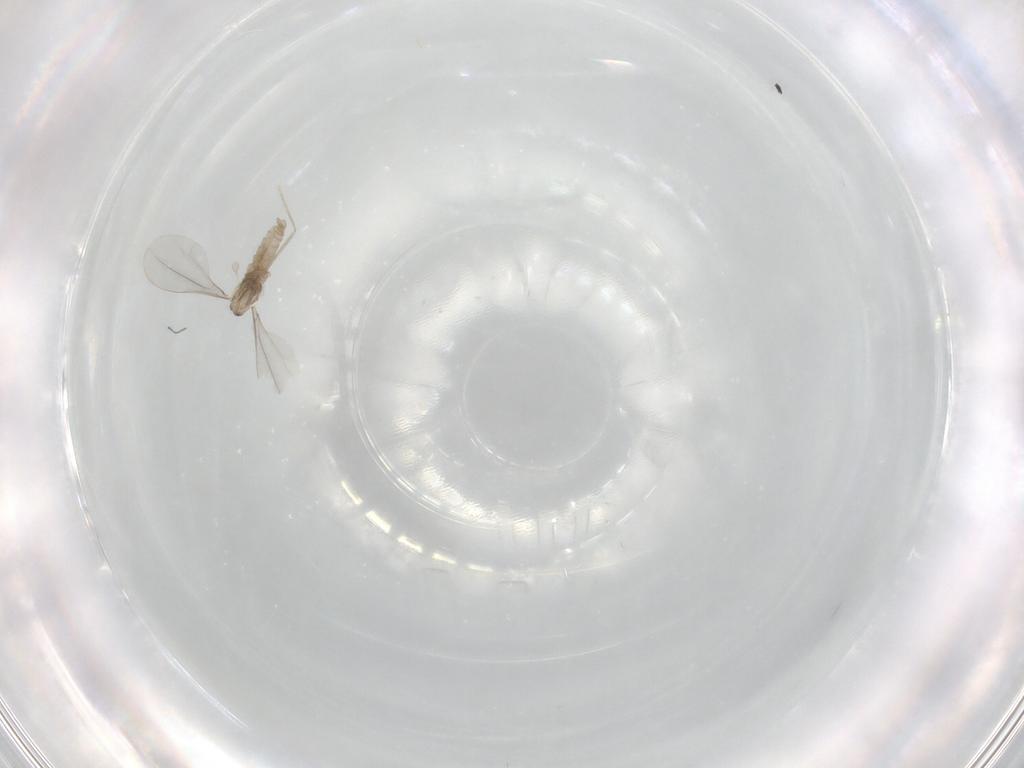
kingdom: Animalia
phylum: Arthropoda
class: Insecta
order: Diptera
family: Cecidomyiidae
